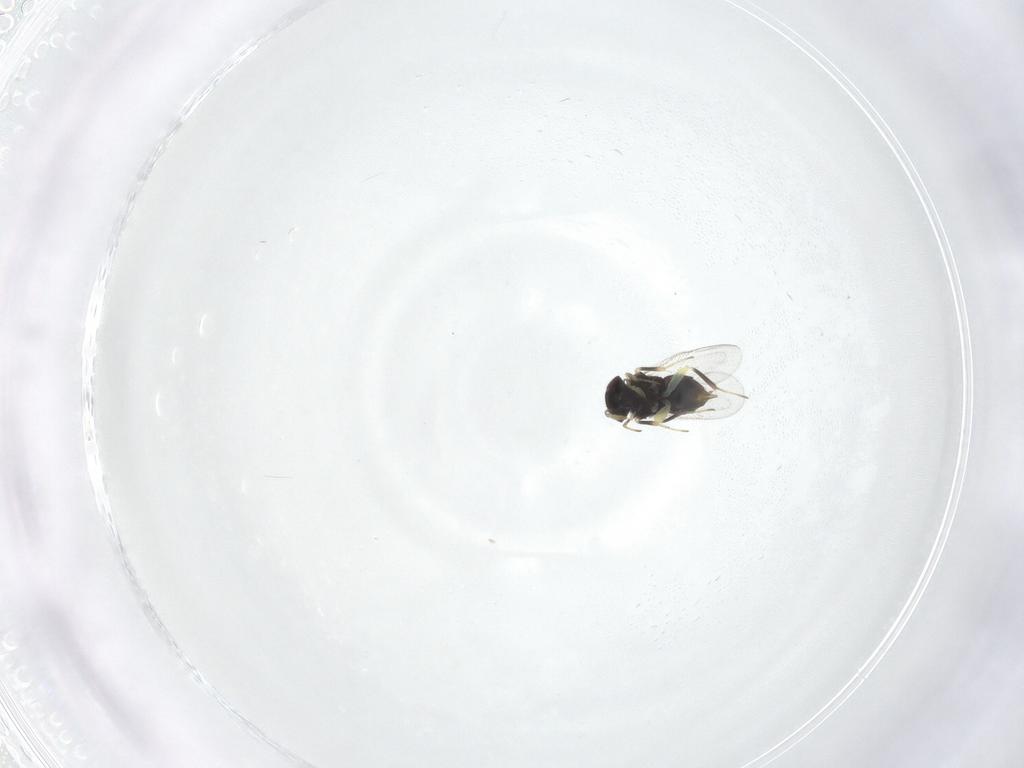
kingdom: Animalia
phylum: Arthropoda
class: Insecta
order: Hymenoptera
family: Aphelinidae
